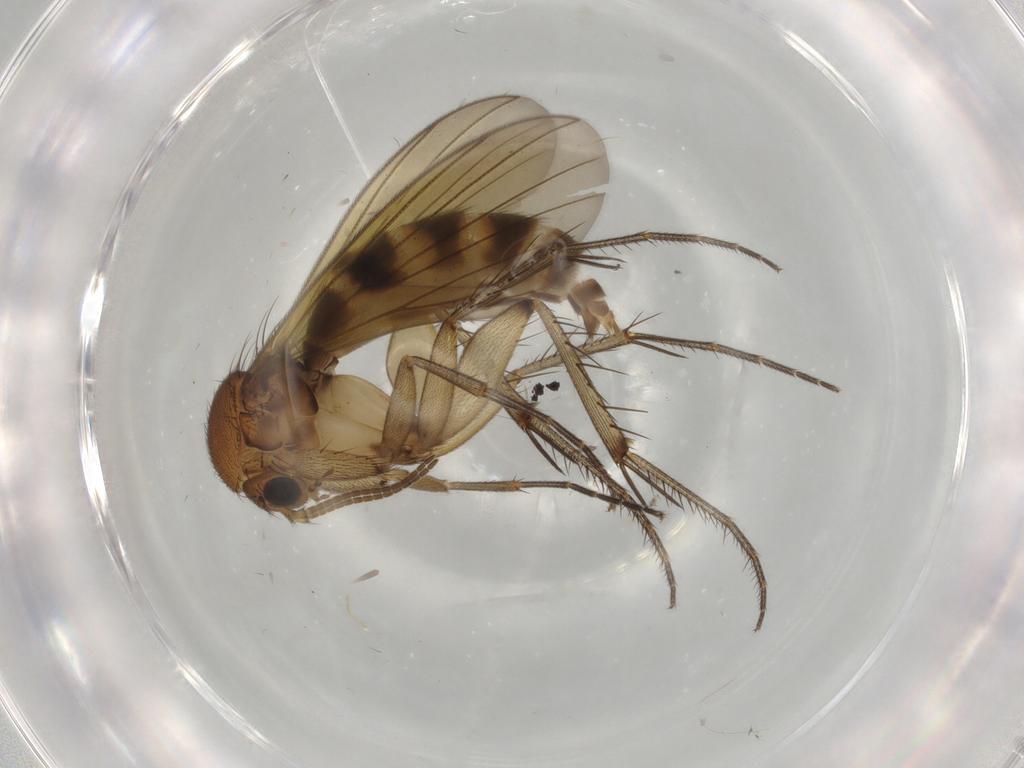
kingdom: Animalia
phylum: Arthropoda
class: Insecta
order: Diptera
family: Mycetophilidae
